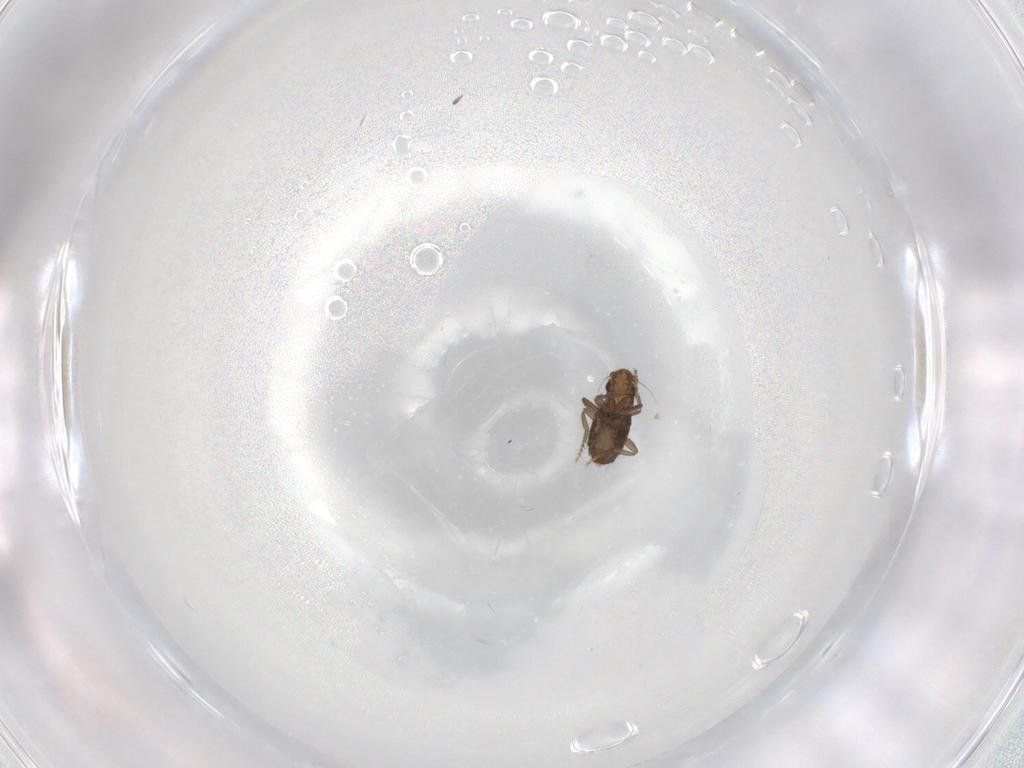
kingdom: Animalia
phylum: Arthropoda
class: Insecta
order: Diptera
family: Phoridae
